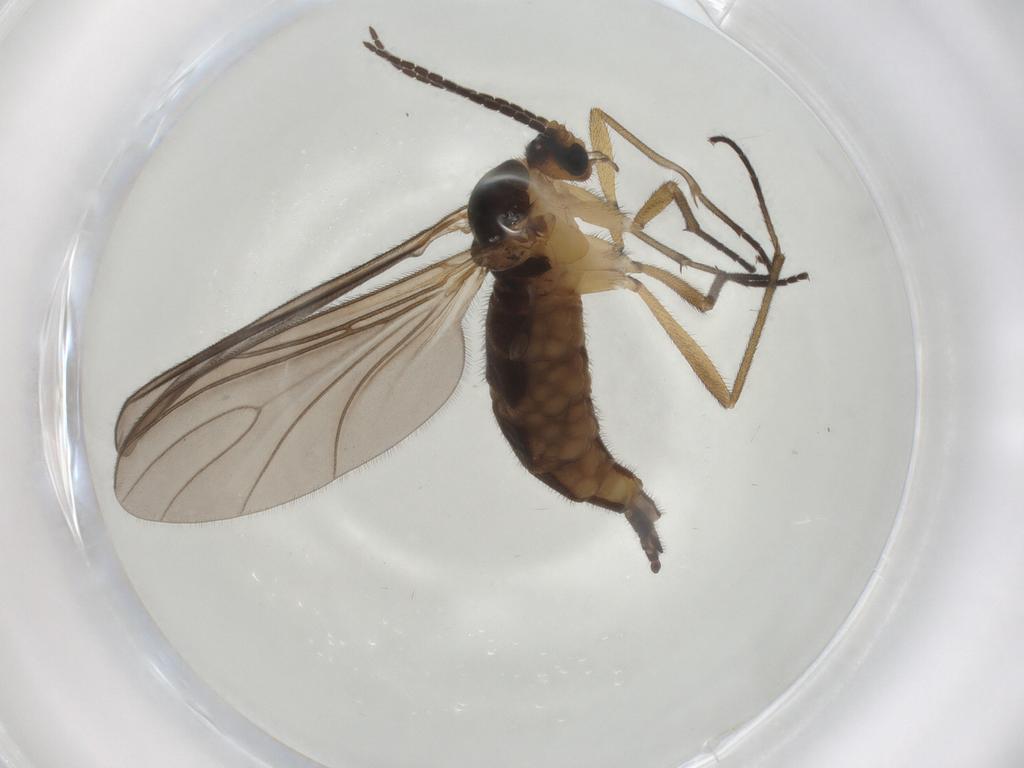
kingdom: Animalia
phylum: Arthropoda
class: Insecta
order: Diptera
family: Sciaridae
